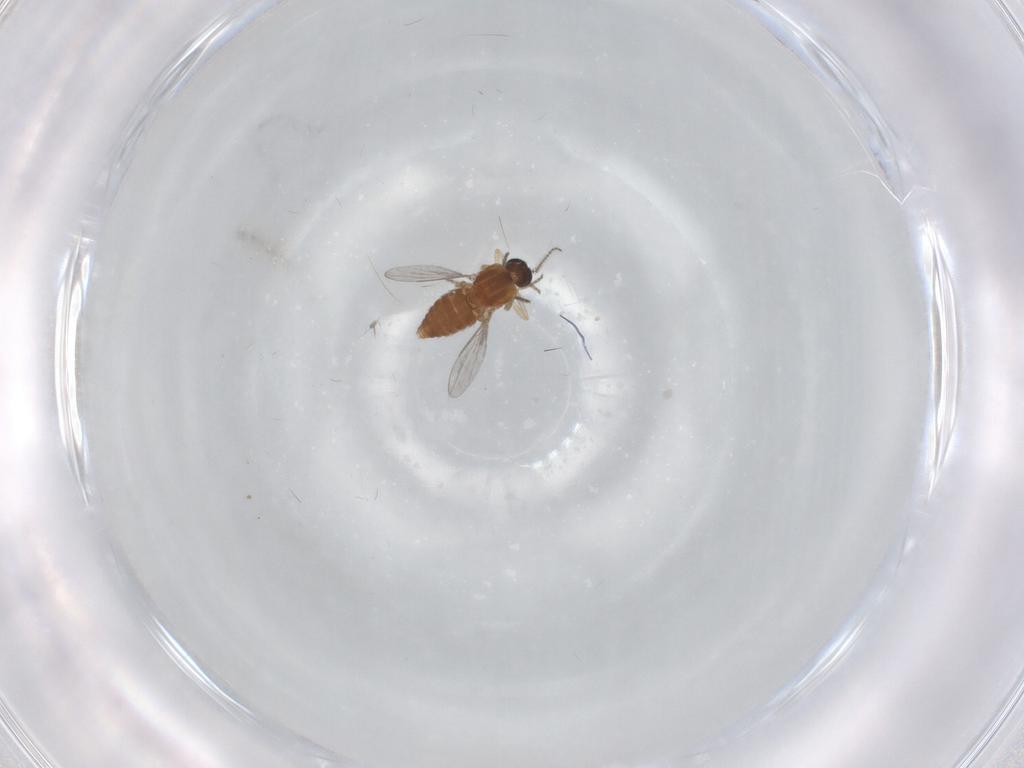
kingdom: Animalia
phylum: Arthropoda
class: Insecta
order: Diptera
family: Ceratopogonidae
